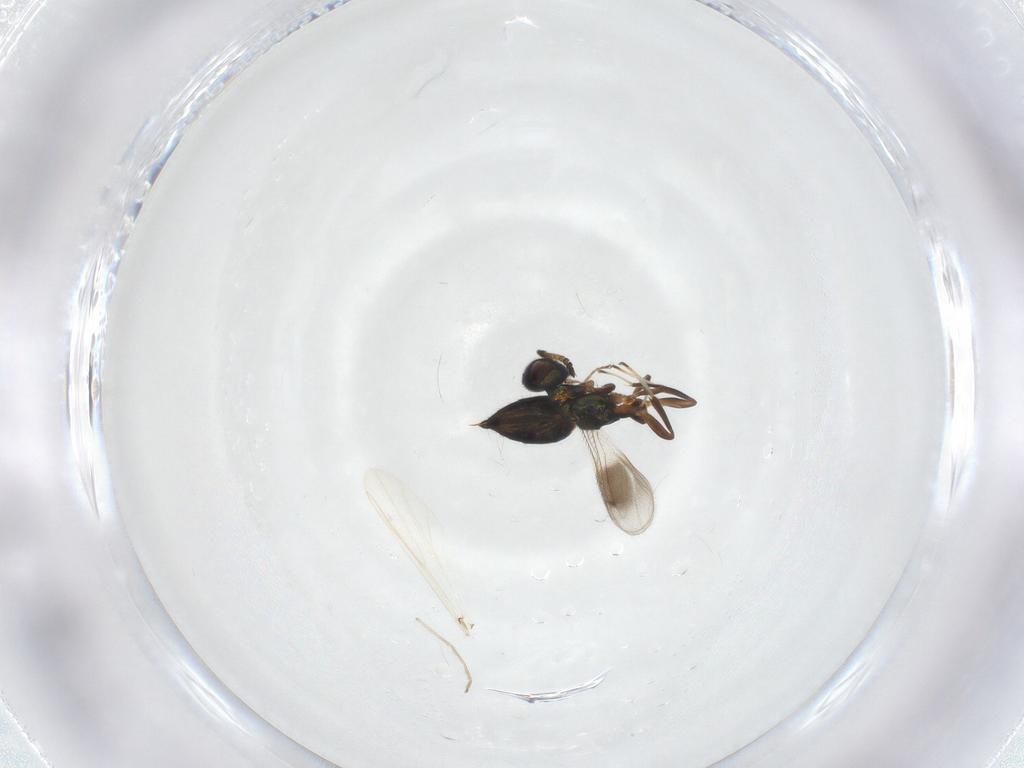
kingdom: Animalia
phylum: Arthropoda
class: Insecta
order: Hymenoptera
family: Cleonyminae
